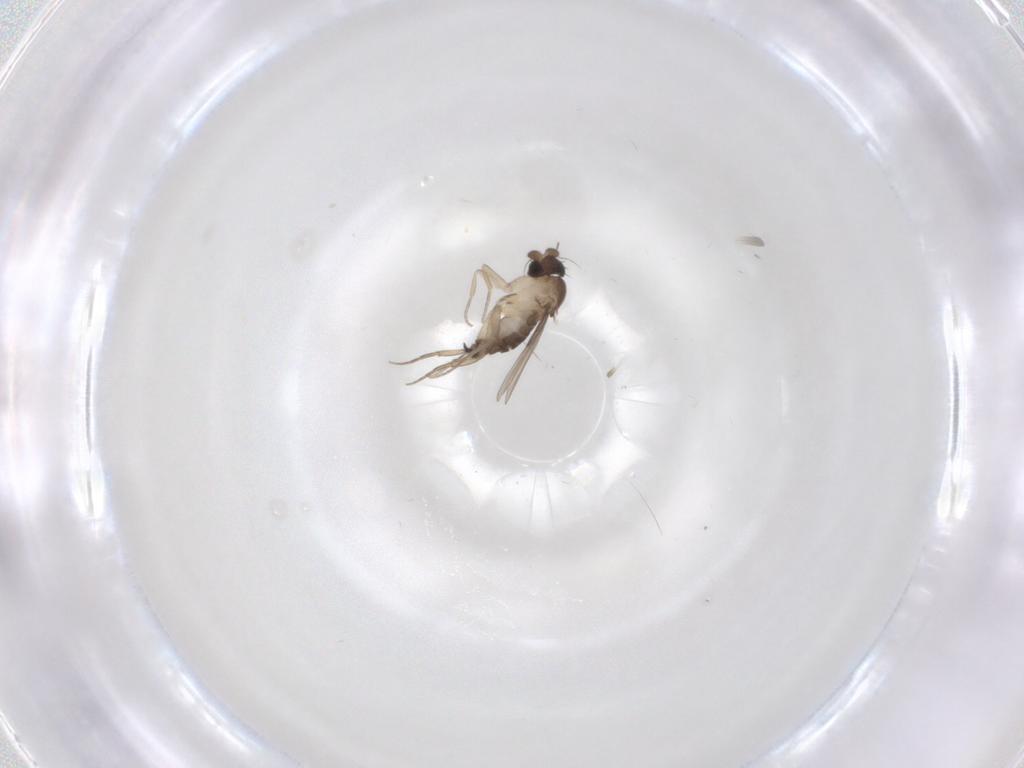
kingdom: Animalia
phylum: Arthropoda
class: Insecta
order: Diptera
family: Phoridae
